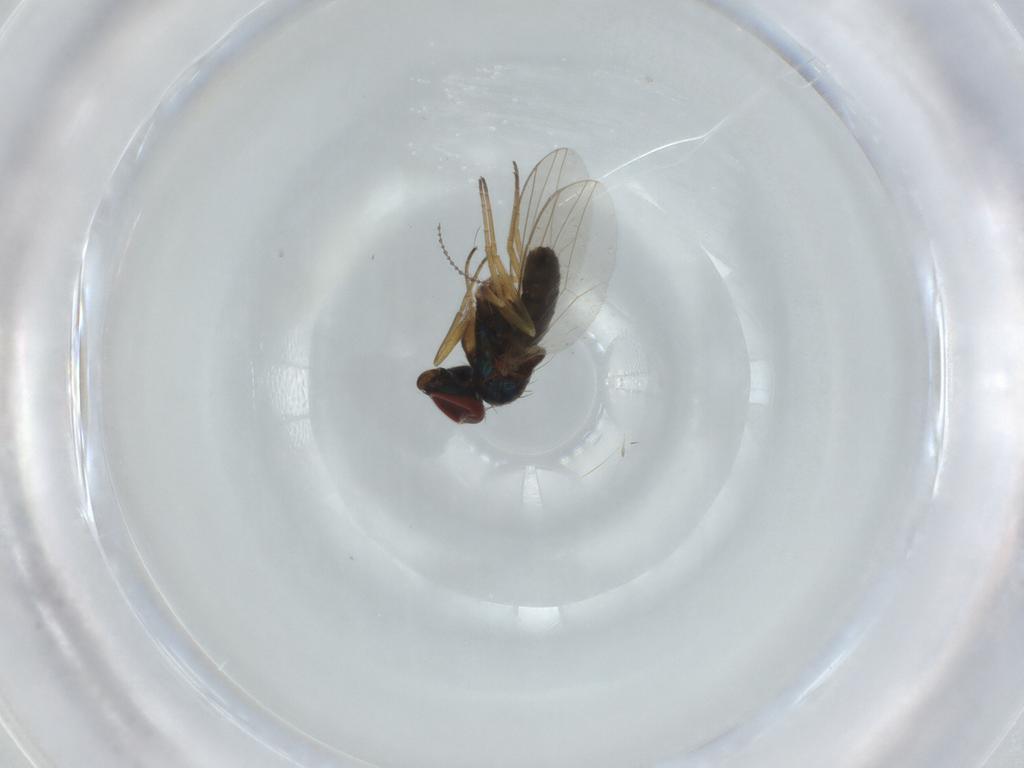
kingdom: Animalia
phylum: Arthropoda
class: Insecta
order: Diptera
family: Dolichopodidae
